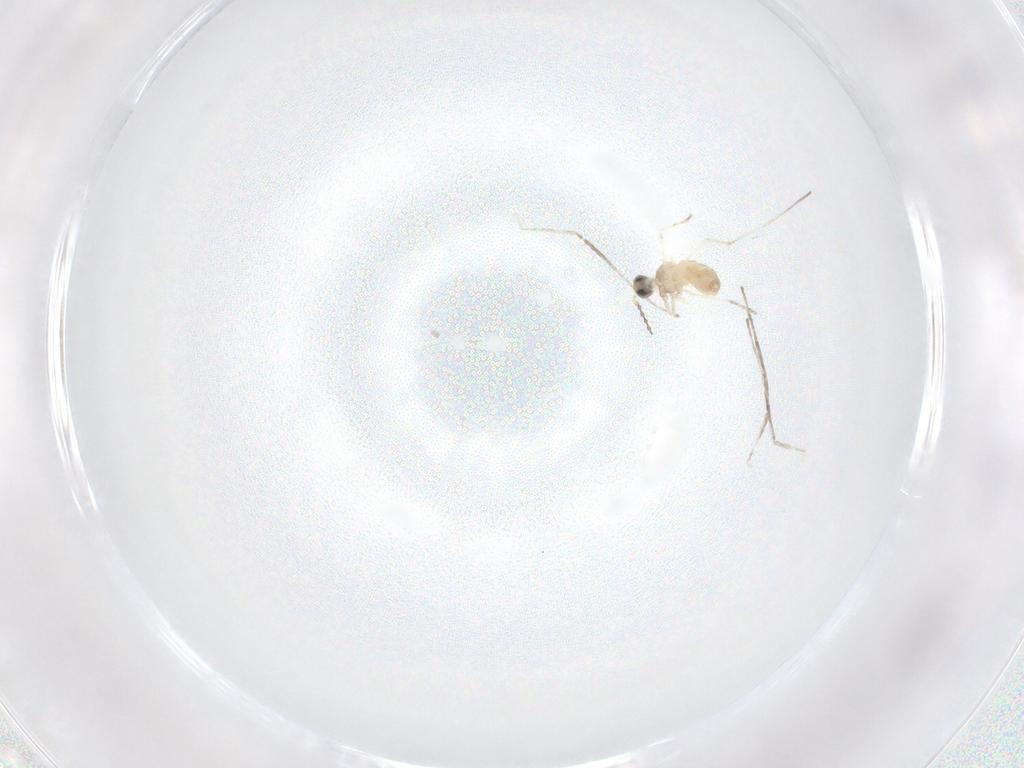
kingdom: Animalia
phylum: Arthropoda
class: Insecta
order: Diptera
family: Cecidomyiidae
